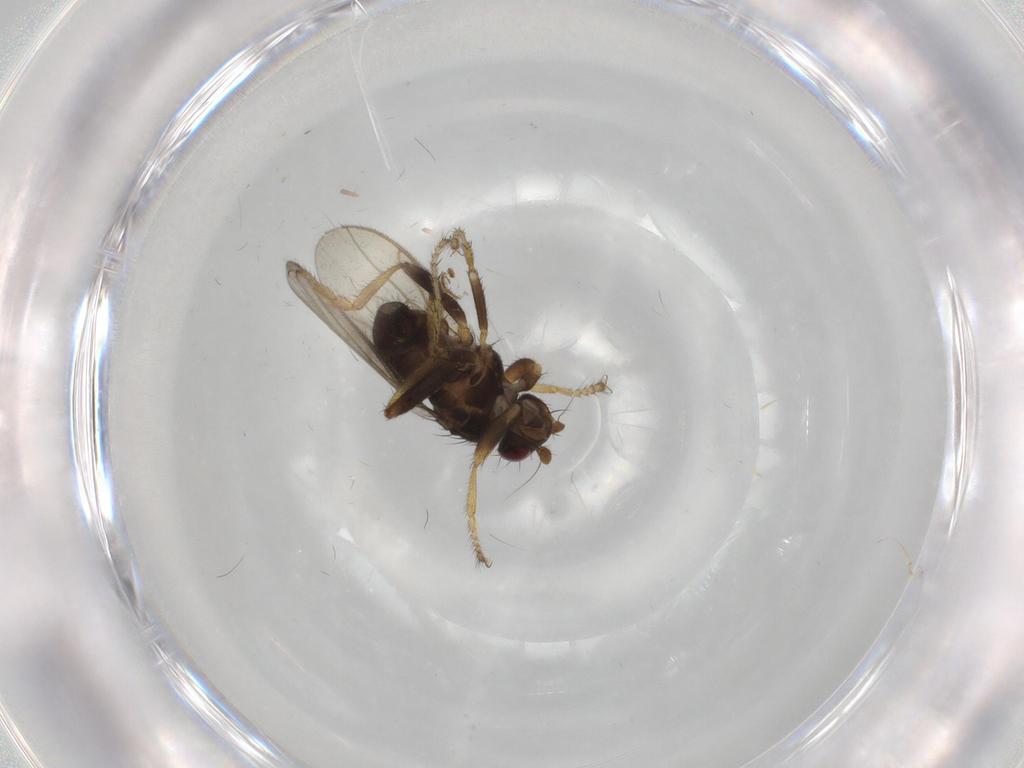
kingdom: Animalia
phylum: Arthropoda
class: Insecta
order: Diptera
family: Sphaeroceridae
